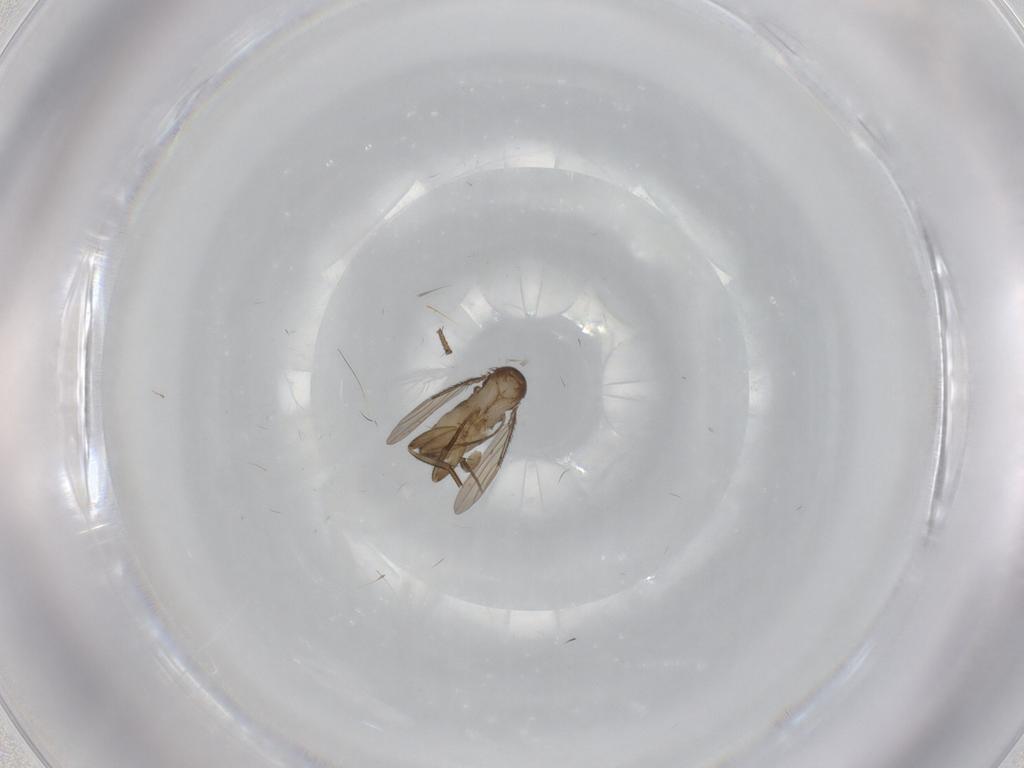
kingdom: Animalia
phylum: Arthropoda
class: Insecta
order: Diptera
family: Phoridae
